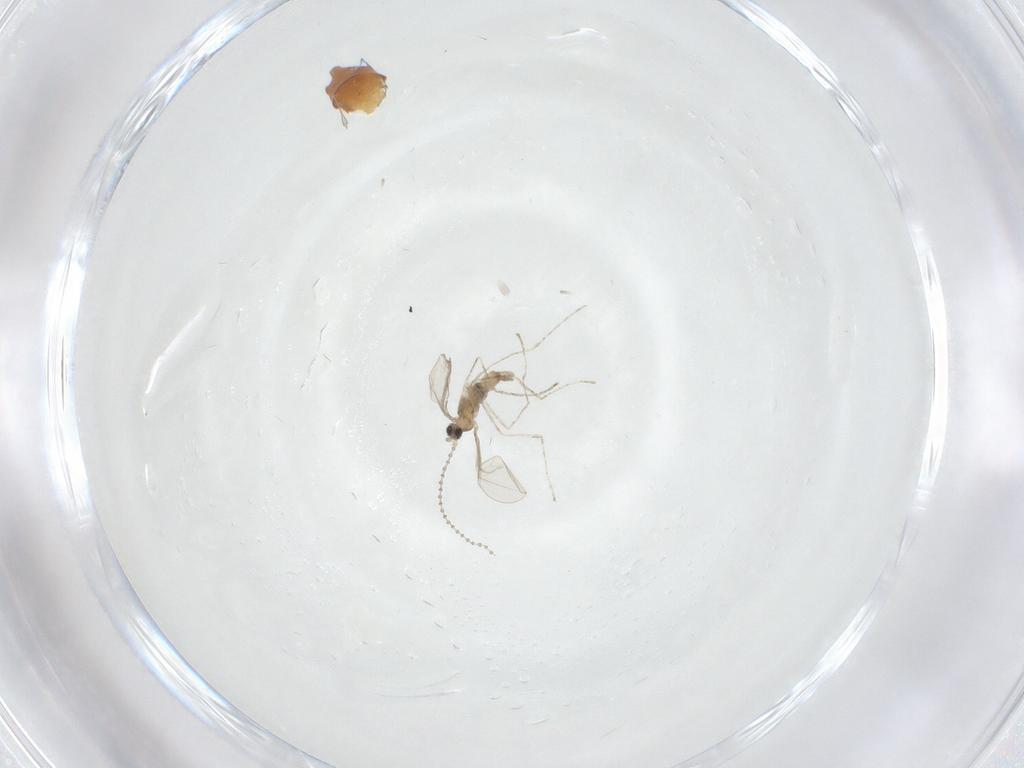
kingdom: Animalia
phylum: Arthropoda
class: Insecta
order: Diptera
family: Cecidomyiidae
